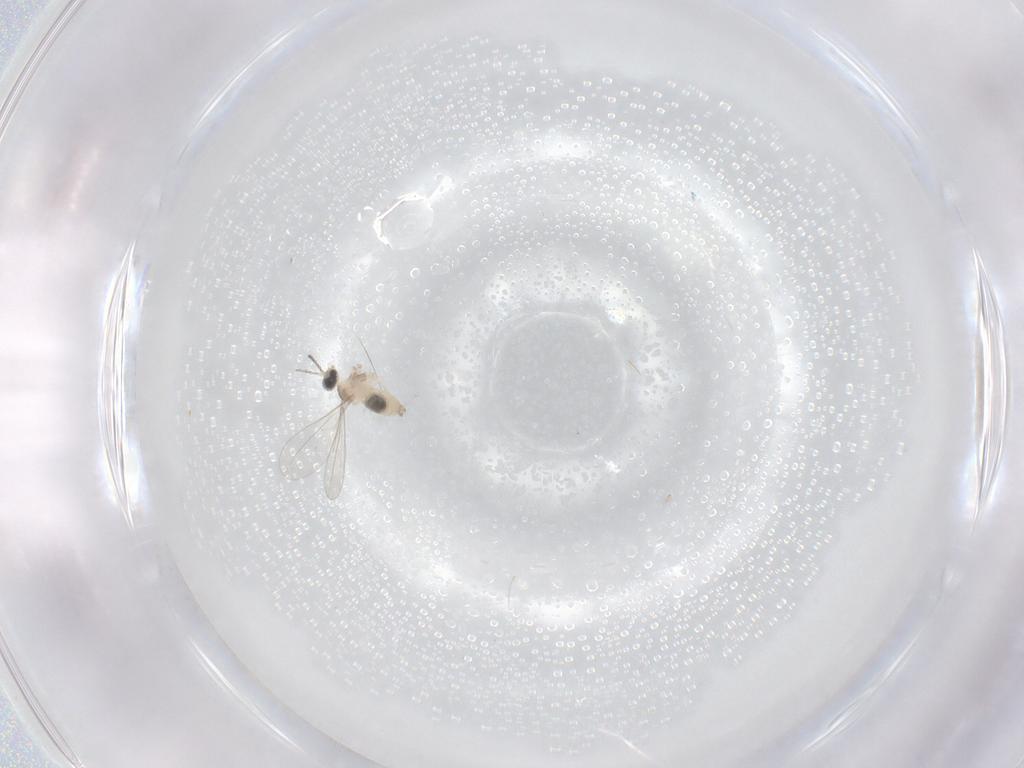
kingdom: Animalia
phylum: Arthropoda
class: Insecta
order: Diptera
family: Cecidomyiidae
